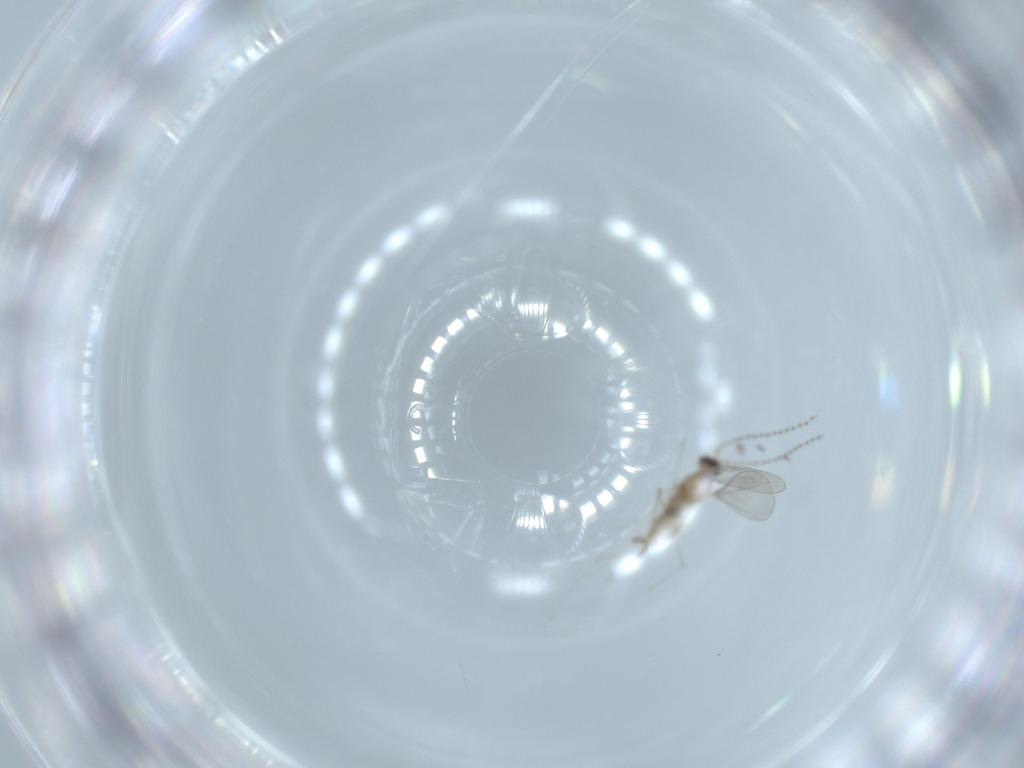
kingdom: Animalia
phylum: Arthropoda
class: Insecta
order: Diptera
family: Cecidomyiidae
